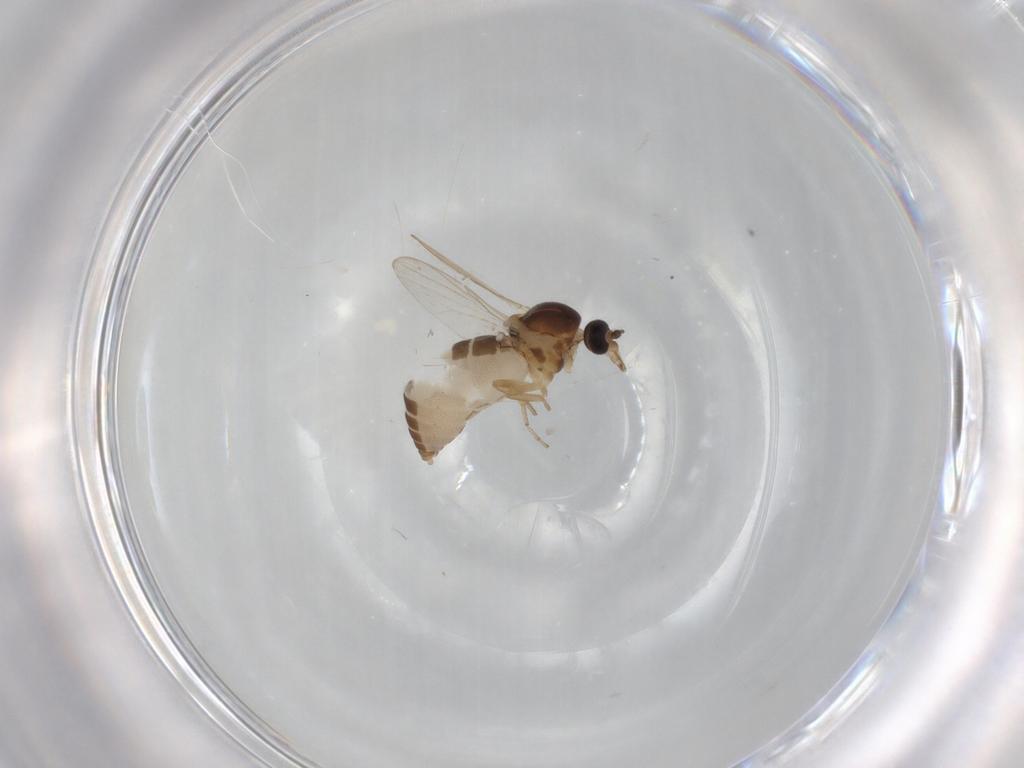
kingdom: Animalia
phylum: Arthropoda
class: Insecta
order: Diptera
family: Ceratopogonidae
